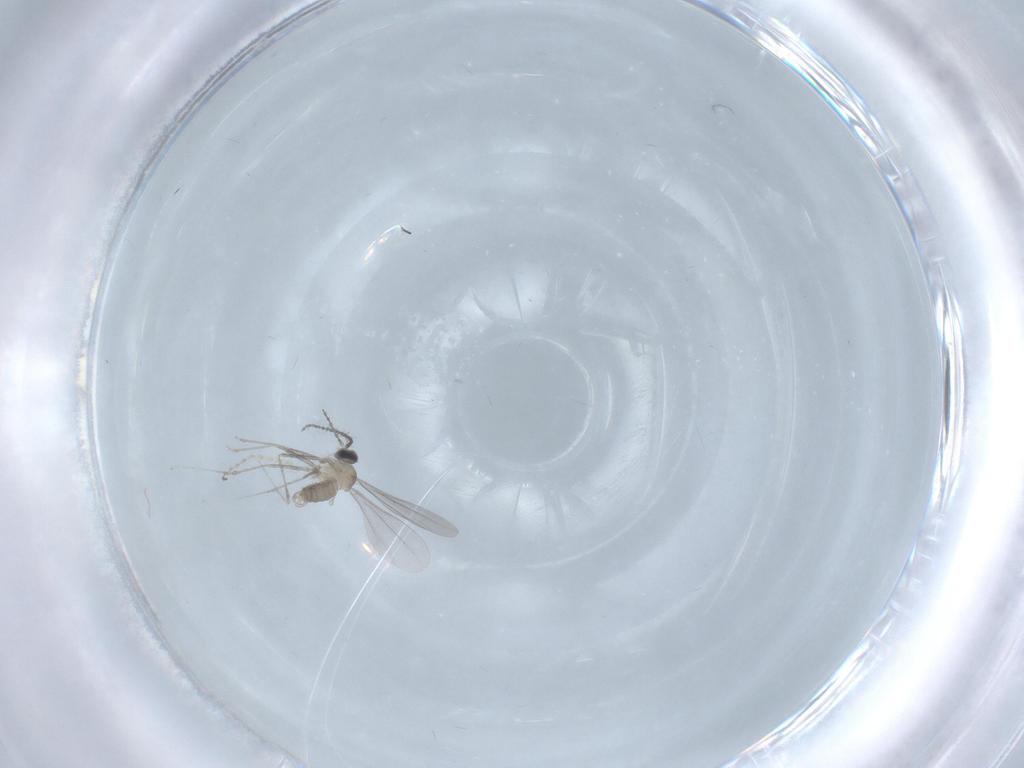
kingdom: Animalia
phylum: Arthropoda
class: Insecta
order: Diptera
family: Cecidomyiidae
